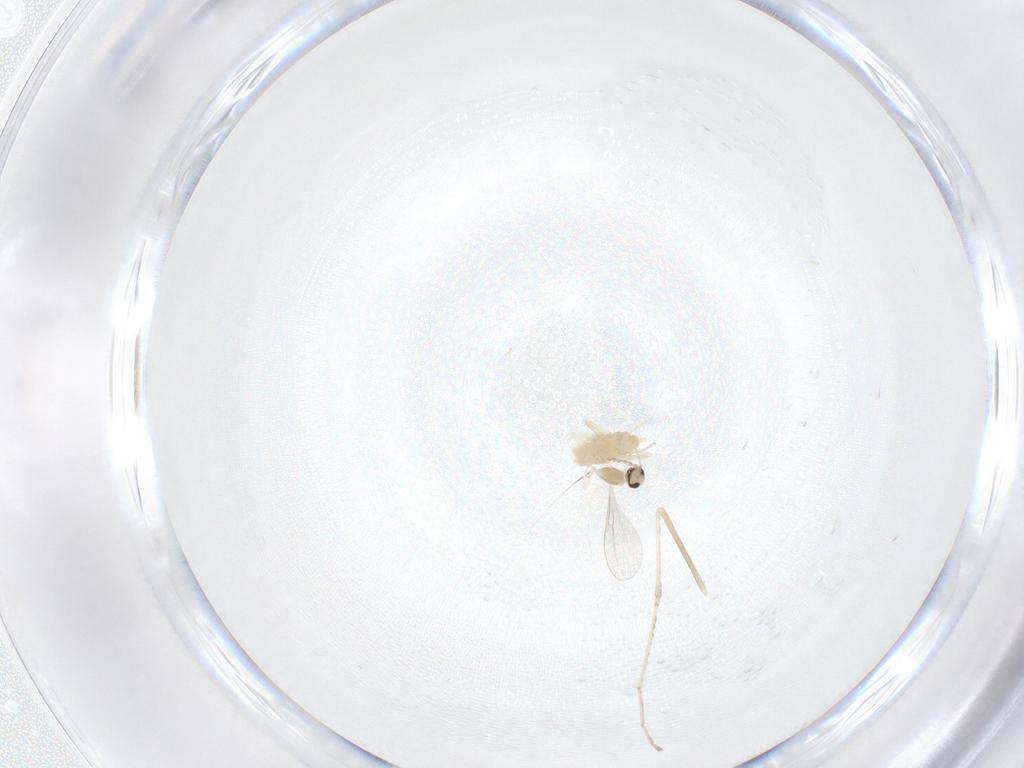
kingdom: Animalia
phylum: Arthropoda
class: Insecta
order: Diptera
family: Cecidomyiidae
